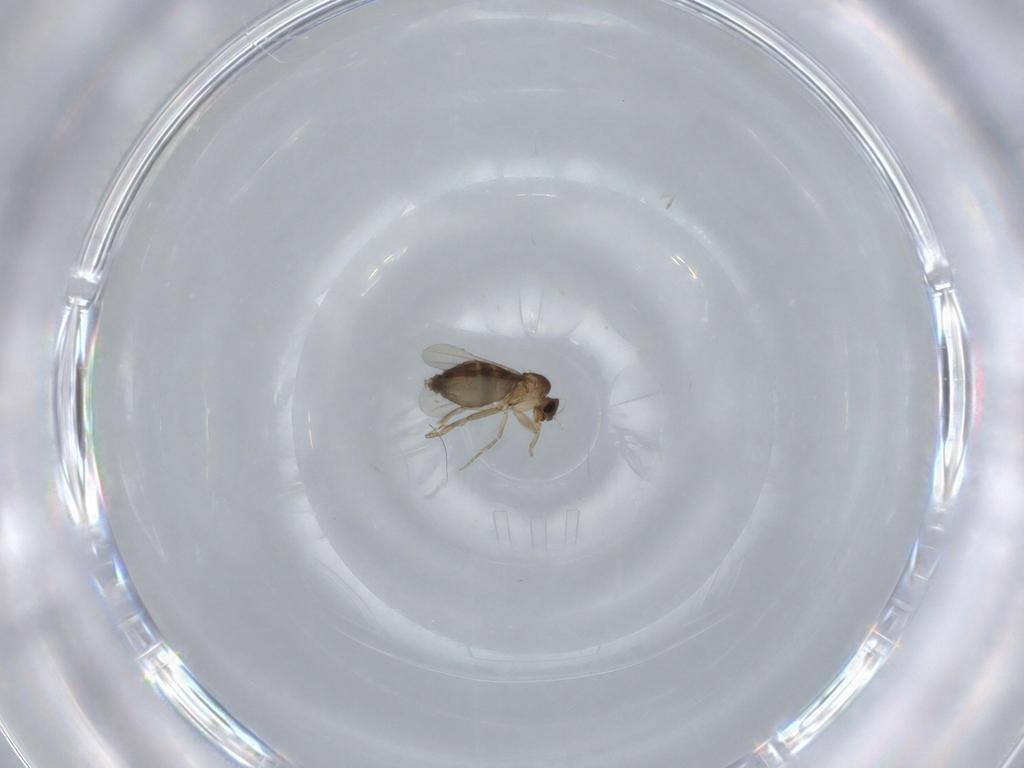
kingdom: Animalia
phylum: Arthropoda
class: Insecta
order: Diptera
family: Phoridae
